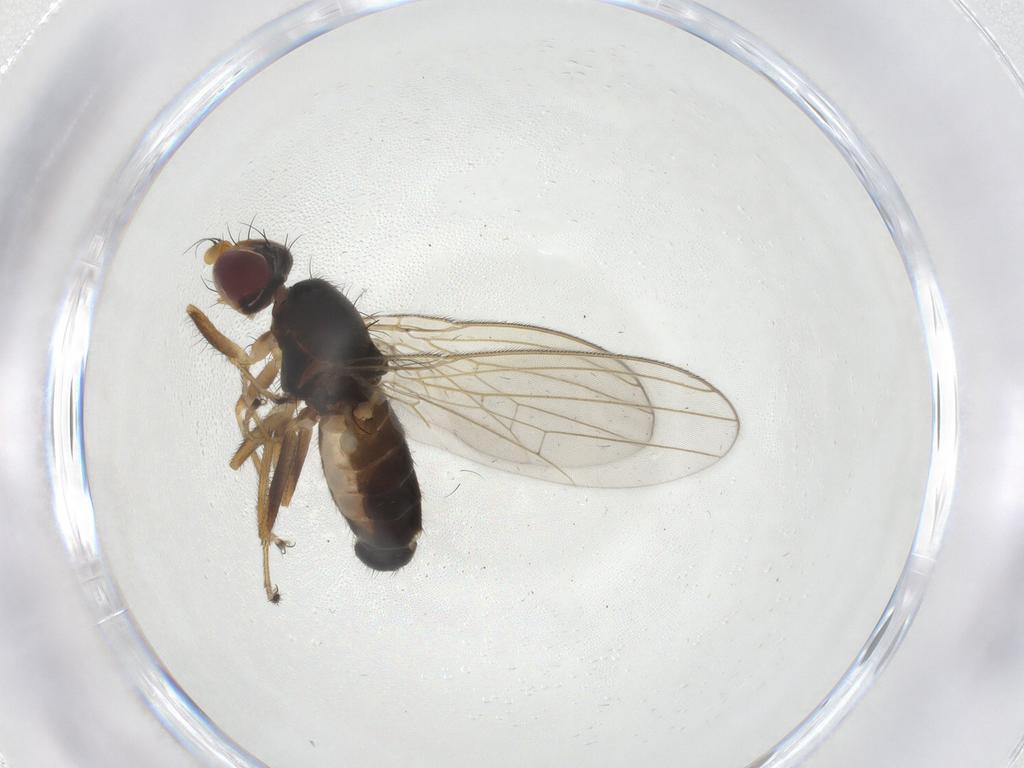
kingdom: Animalia
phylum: Arthropoda
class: Insecta
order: Diptera
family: Anthomyzidae
